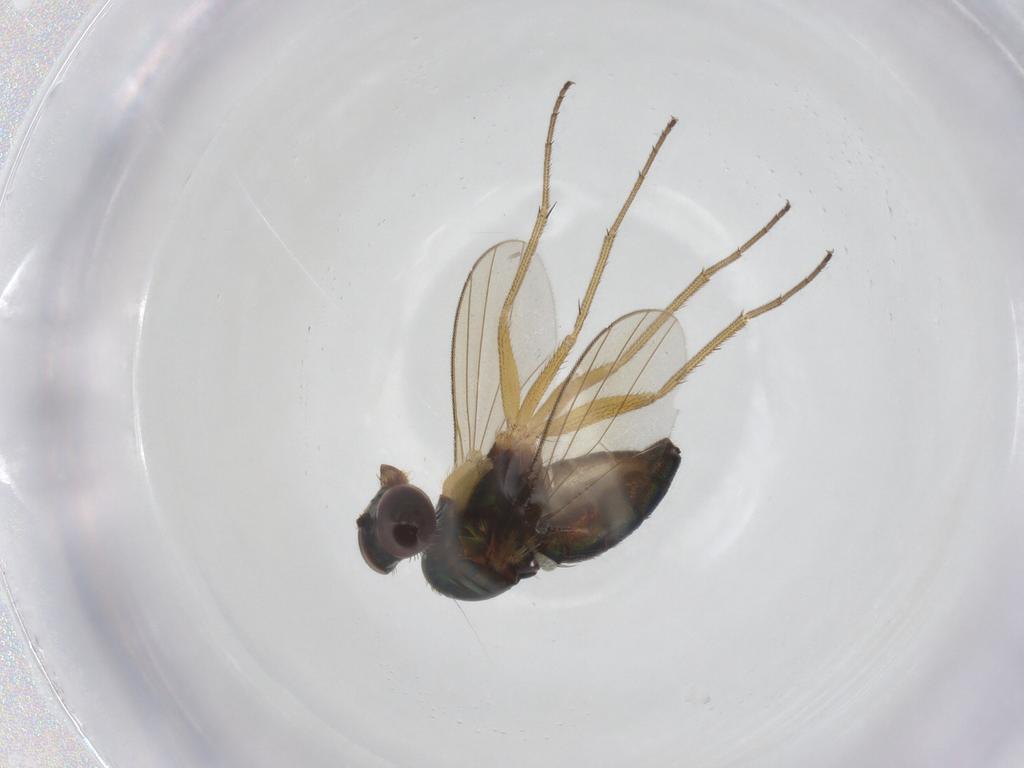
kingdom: Animalia
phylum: Arthropoda
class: Insecta
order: Diptera
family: Dolichopodidae
